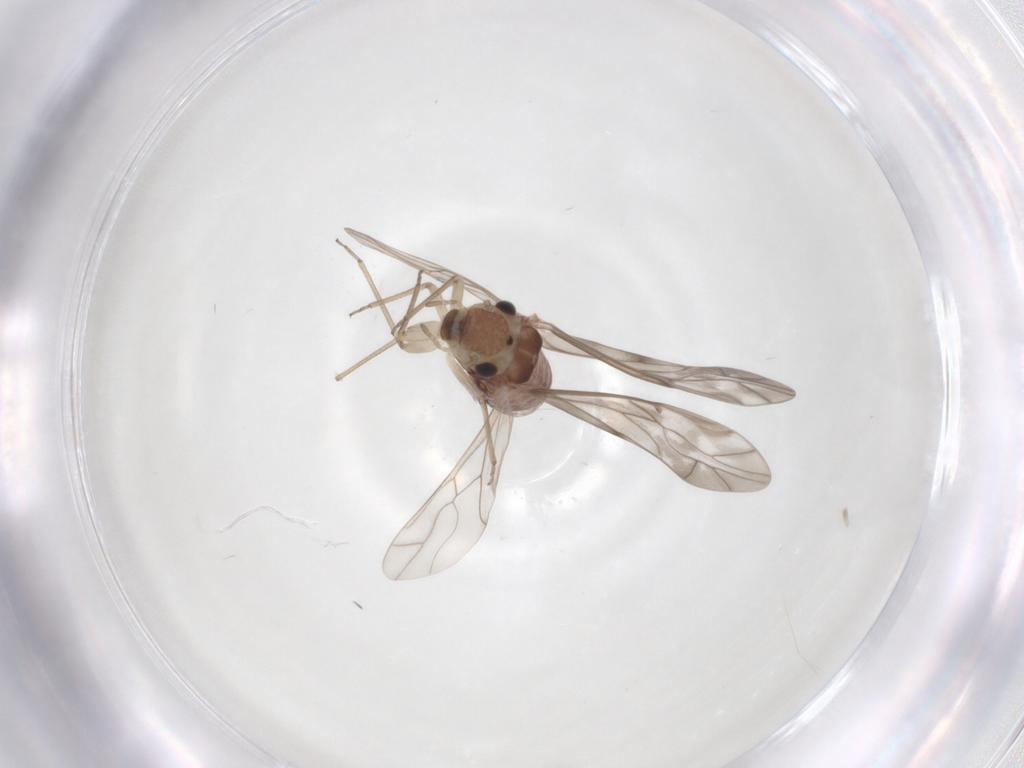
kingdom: Animalia
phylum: Arthropoda
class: Insecta
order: Psocodea
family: Peripsocidae
